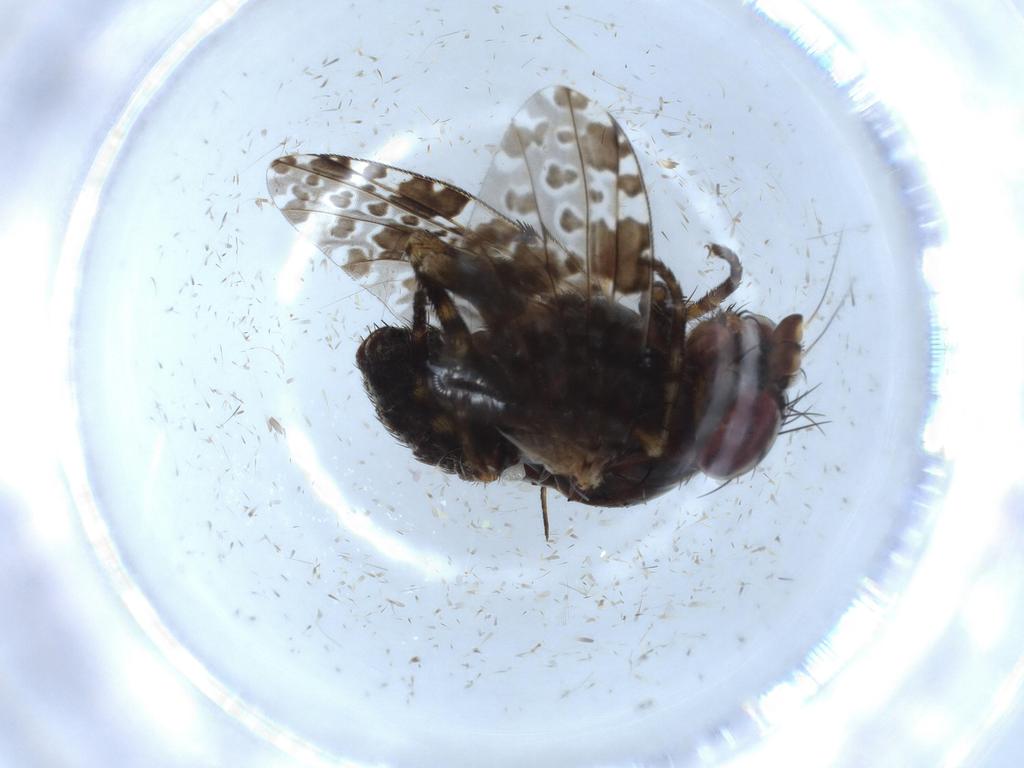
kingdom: Animalia
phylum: Arthropoda
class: Insecta
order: Diptera
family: Odiniidae
